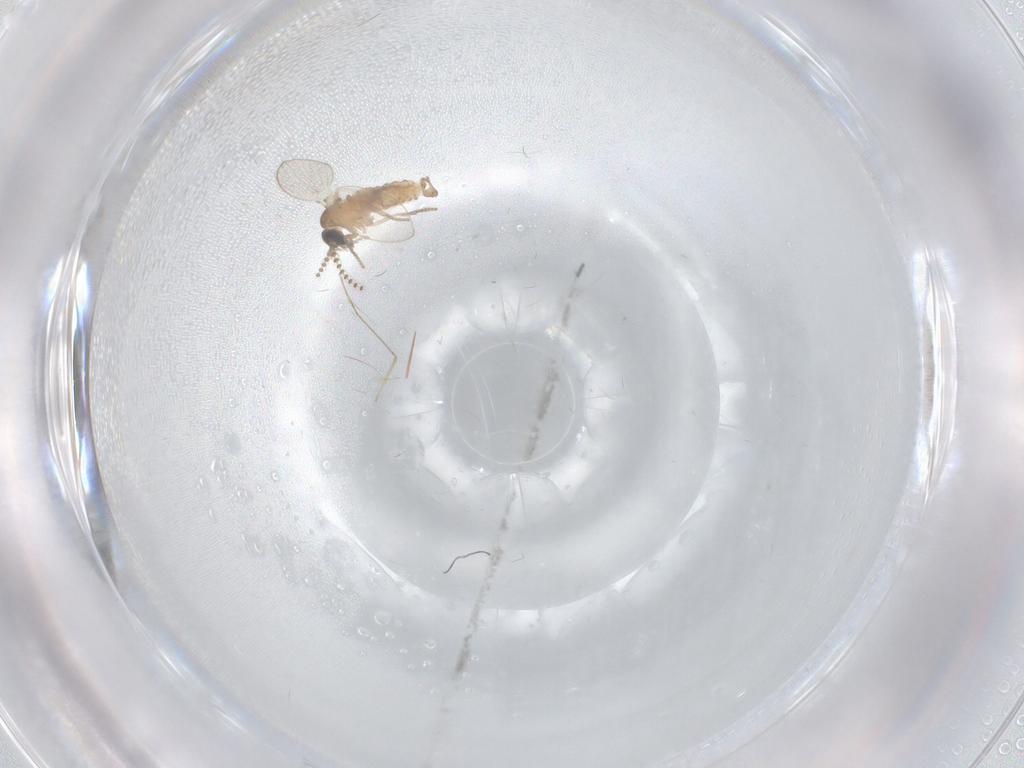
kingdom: Animalia
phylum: Arthropoda
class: Insecta
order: Diptera
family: Psychodidae
